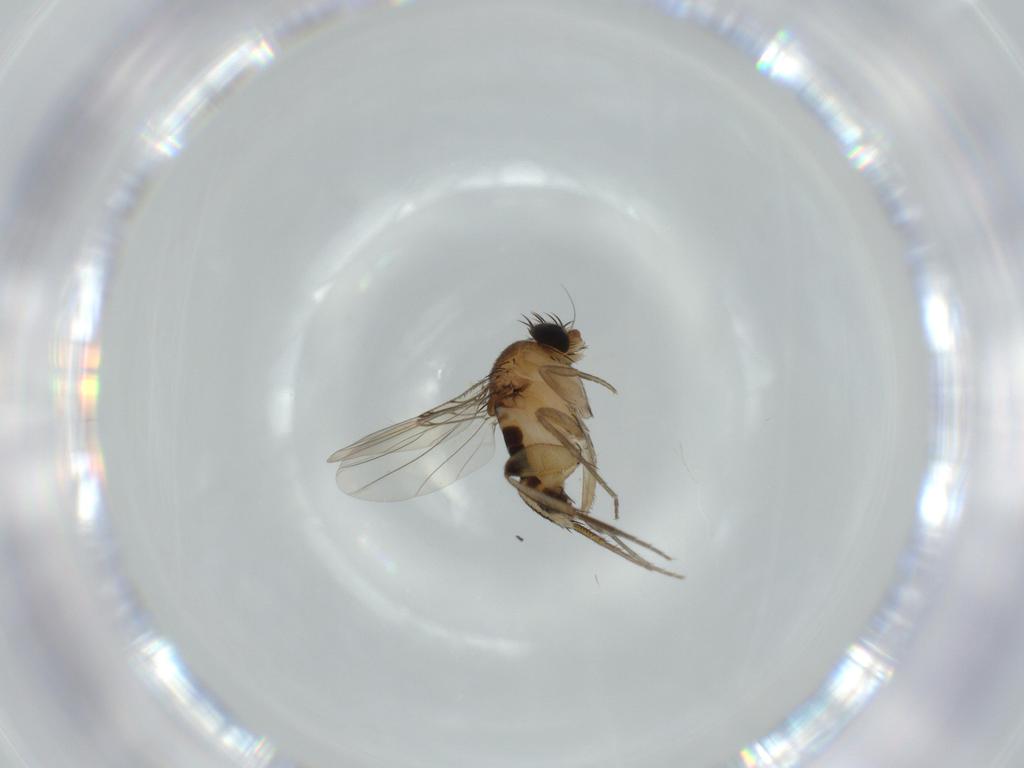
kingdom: Animalia
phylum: Arthropoda
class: Insecta
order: Diptera
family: Phoridae
